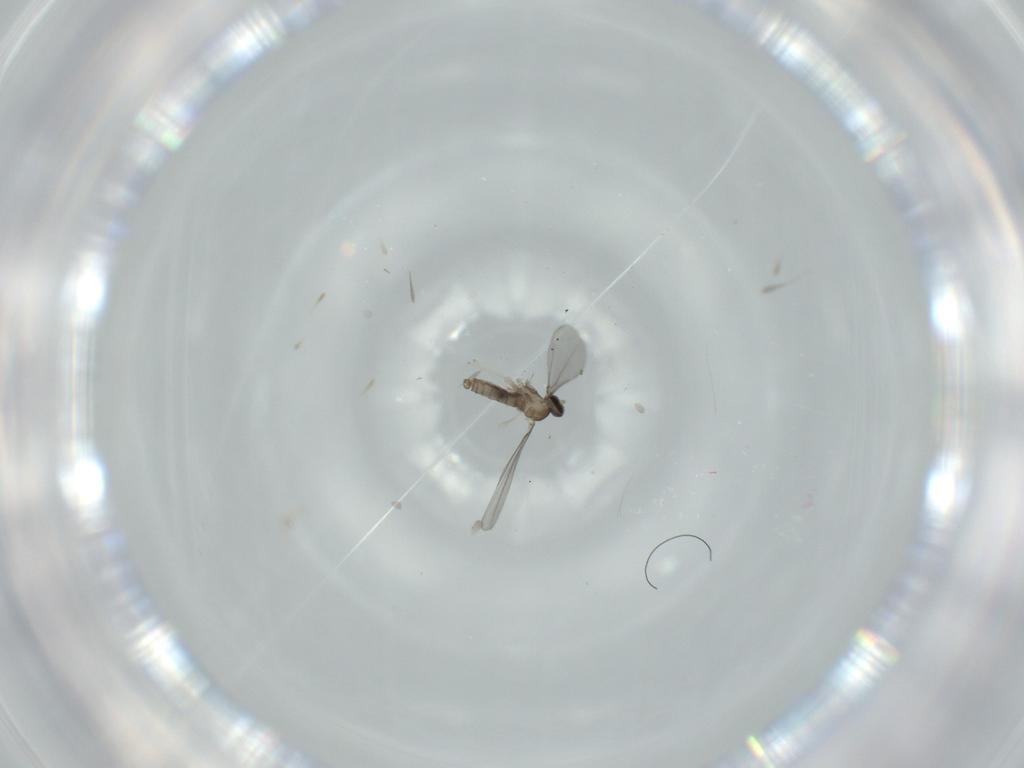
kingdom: Animalia
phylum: Arthropoda
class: Insecta
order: Diptera
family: Cecidomyiidae
